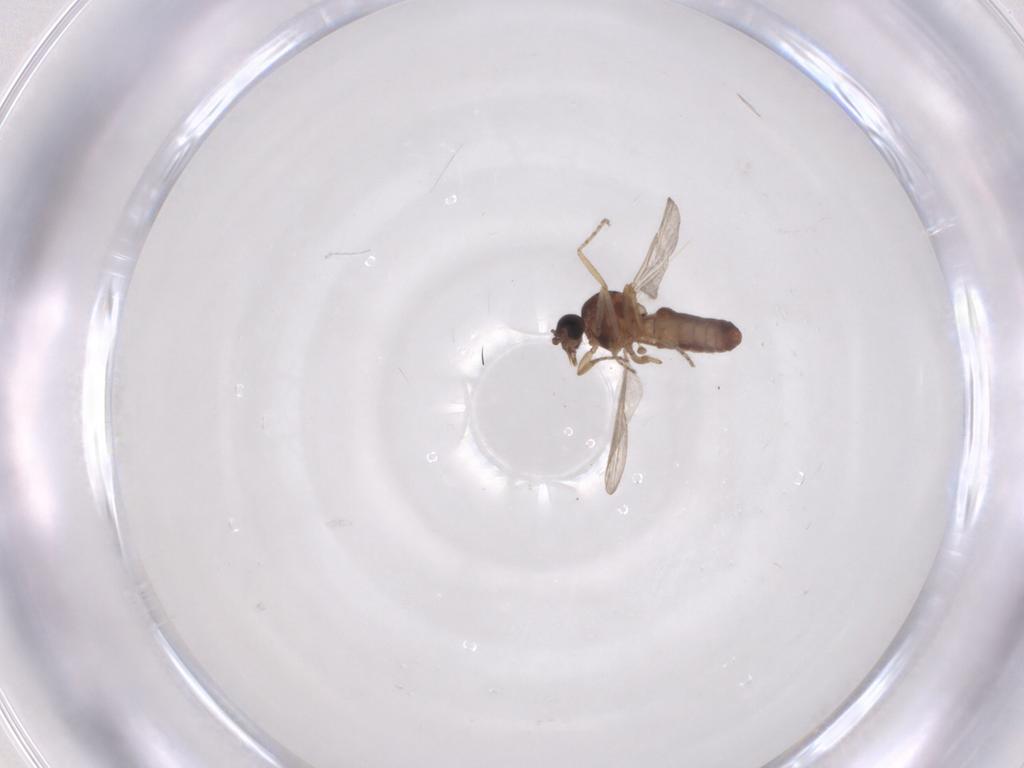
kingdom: Animalia
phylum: Arthropoda
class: Insecta
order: Diptera
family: Ceratopogonidae
